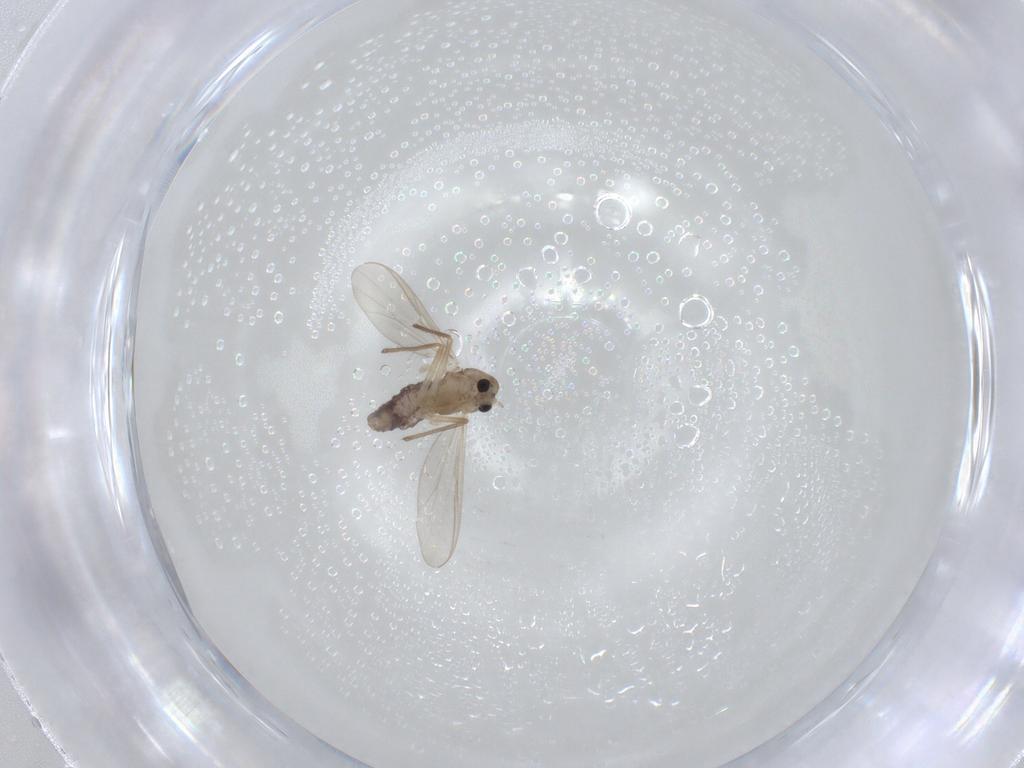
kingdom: Animalia
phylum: Arthropoda
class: Insecta
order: Diptera
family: Chironomidae
